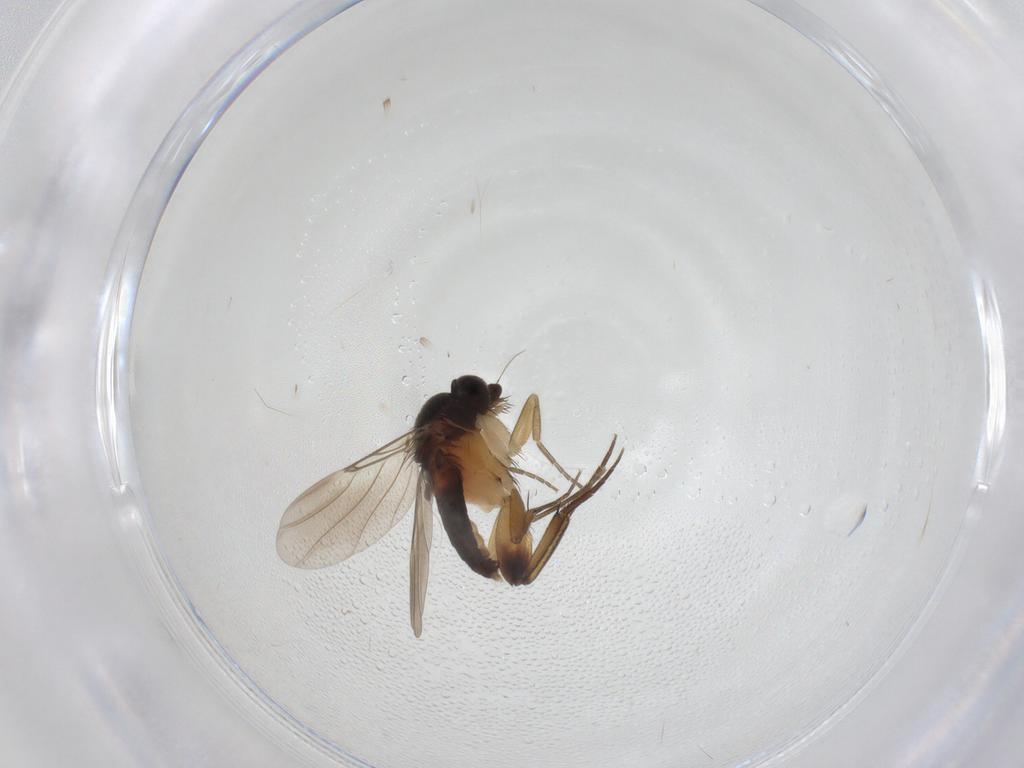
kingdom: Animalia
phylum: Arthropoda
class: Insecta
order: Diptera
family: Phoridae
